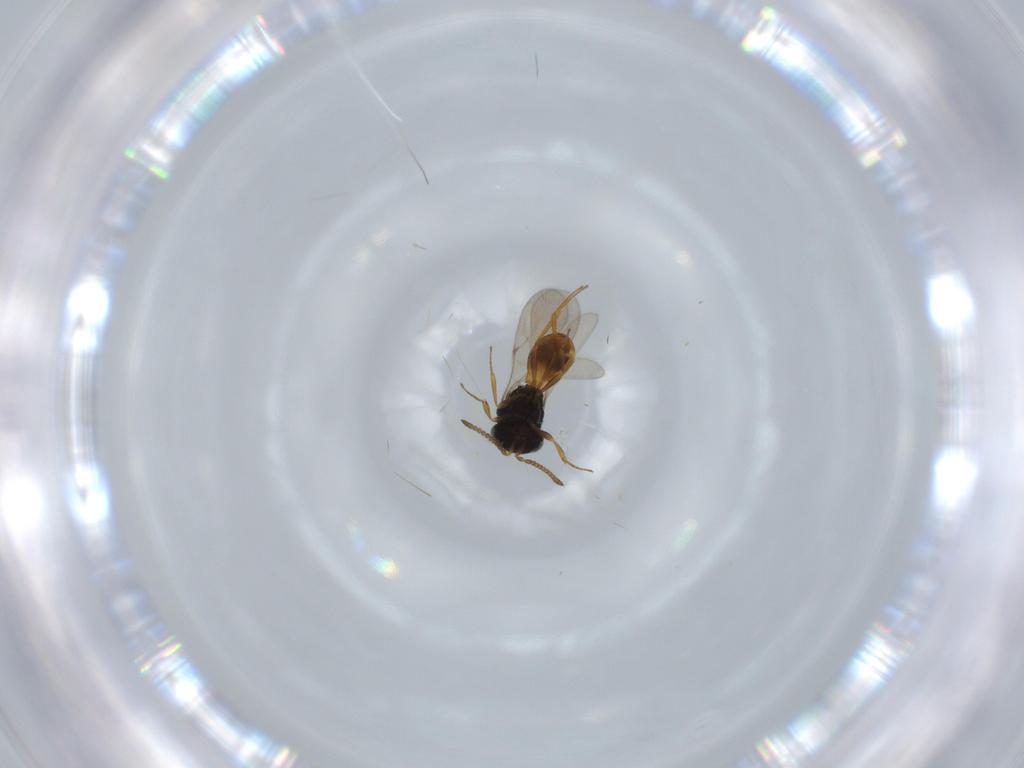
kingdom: Animalia
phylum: Arthropoda
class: Insecta
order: Hymenoptera
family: Scelionidae
